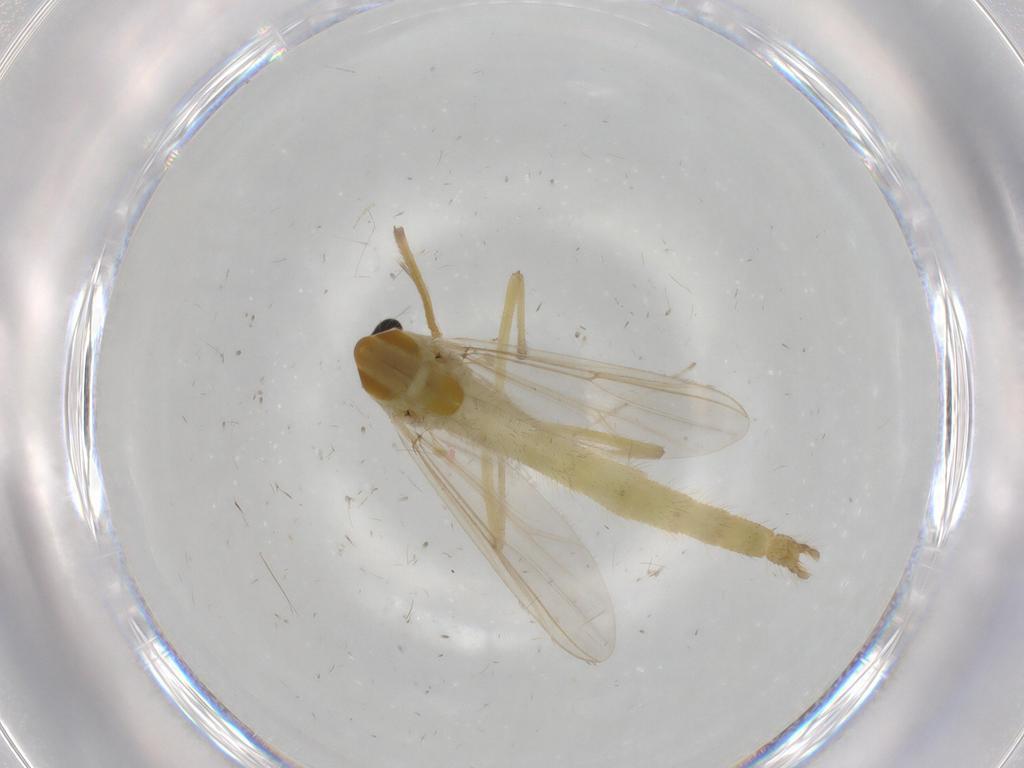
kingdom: Animalia
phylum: Arthropoda
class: Insecta
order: Diptera
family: Chironomidae
